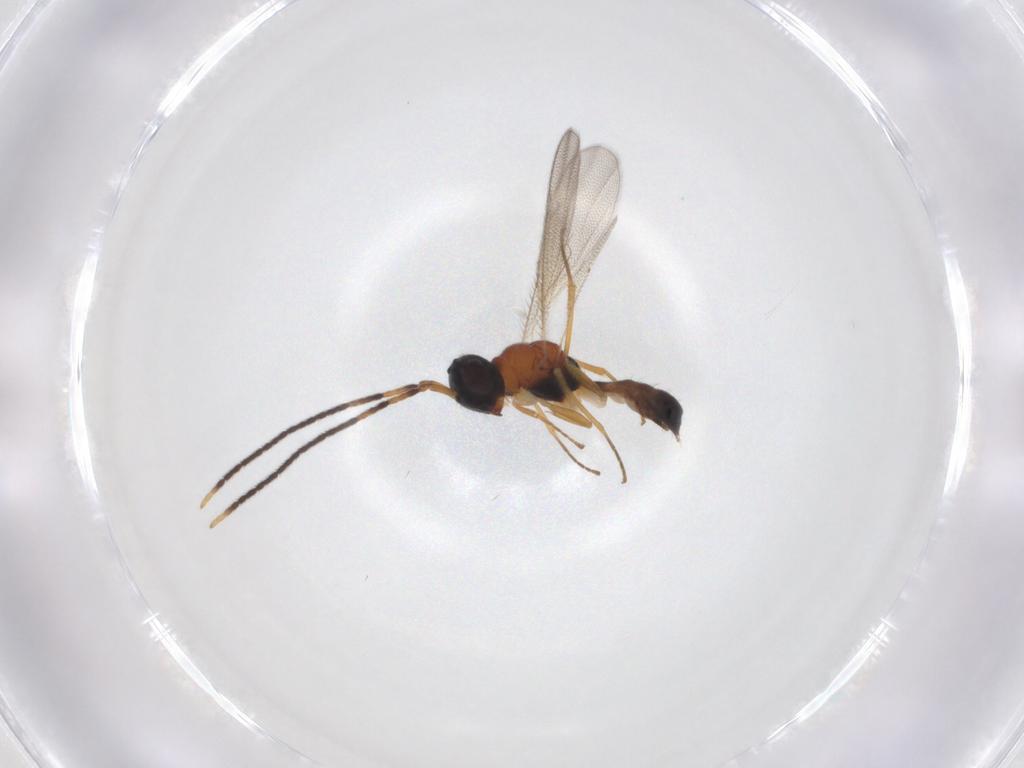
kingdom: Animalia
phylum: Arthropoda
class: Insecta
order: Hymenoptera
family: Pteromalidae
